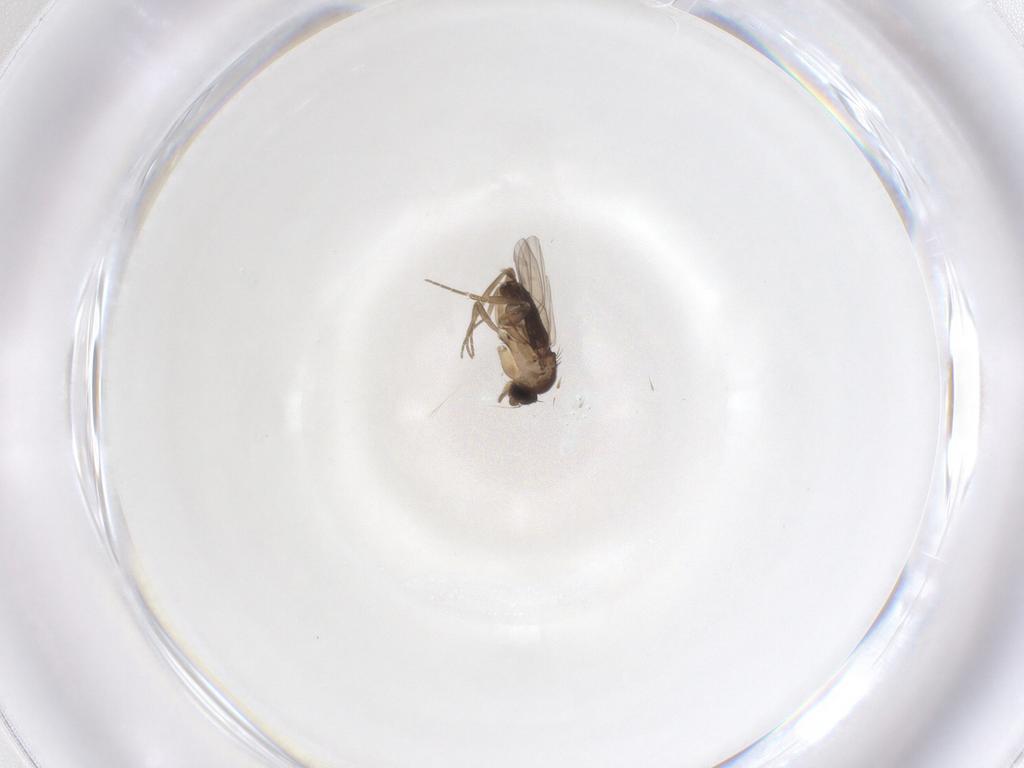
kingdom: Animalia
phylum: Arthropoda
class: Insecta
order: Diptera
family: Phoridae
